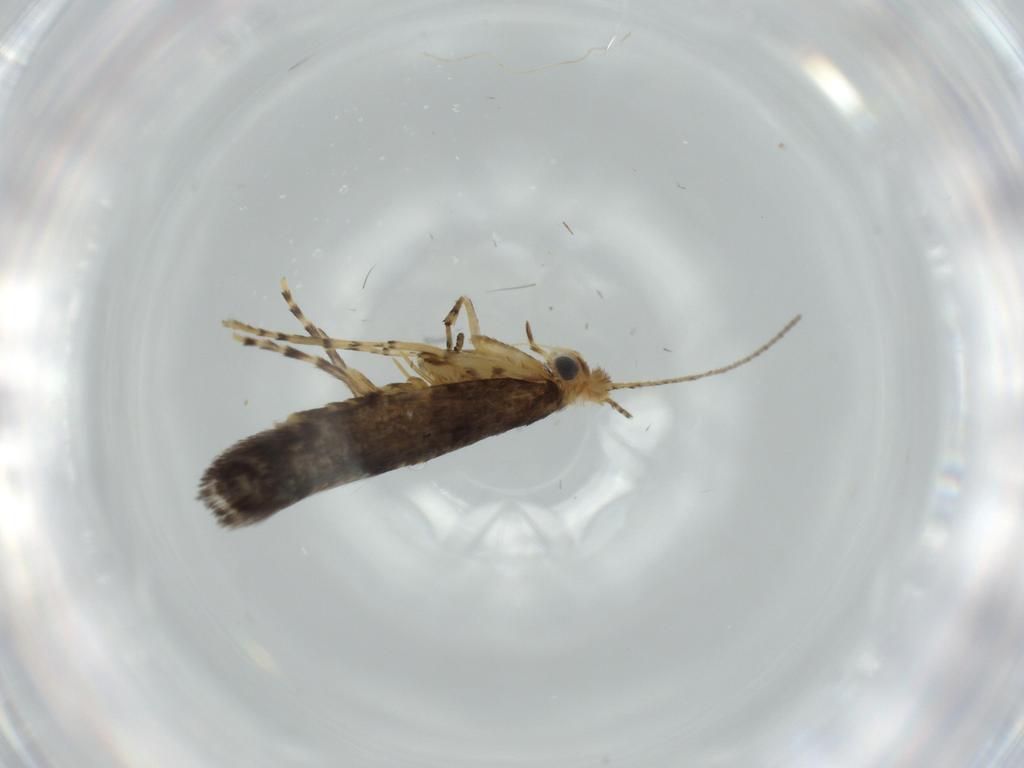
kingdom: Animalia
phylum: Arthropoda
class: Insecta
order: Lepidoptera
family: Argyresthiidae
